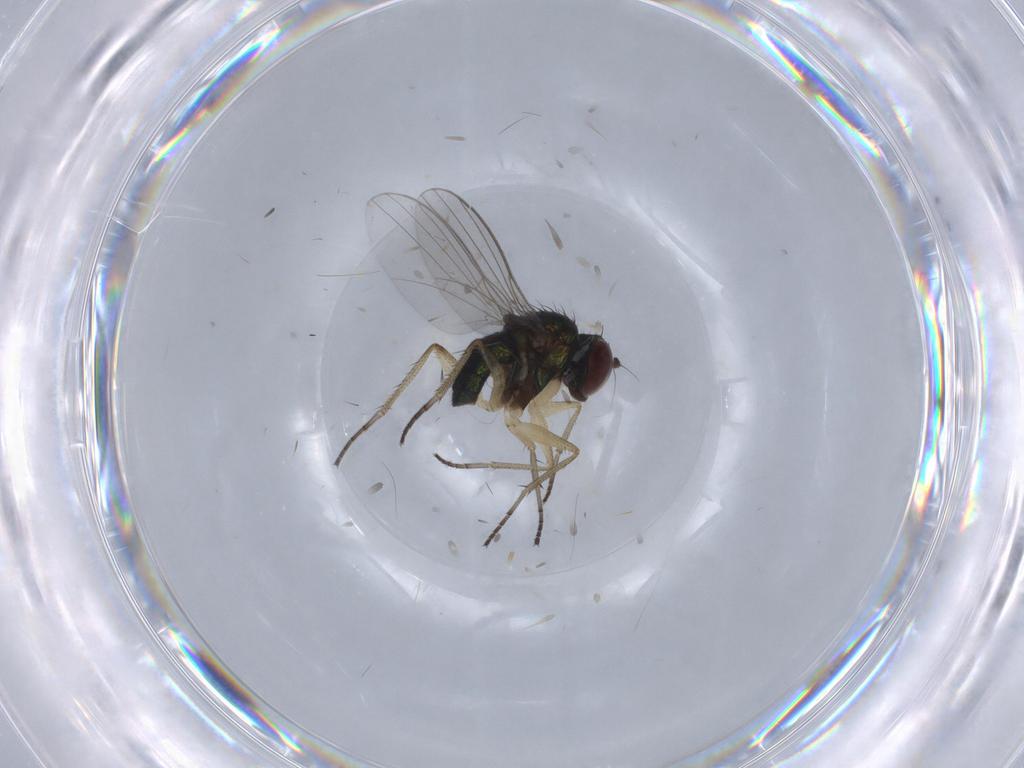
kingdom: Animalia
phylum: Arthropoda
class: Insecta
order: Diptera
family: Dolichopodidae
